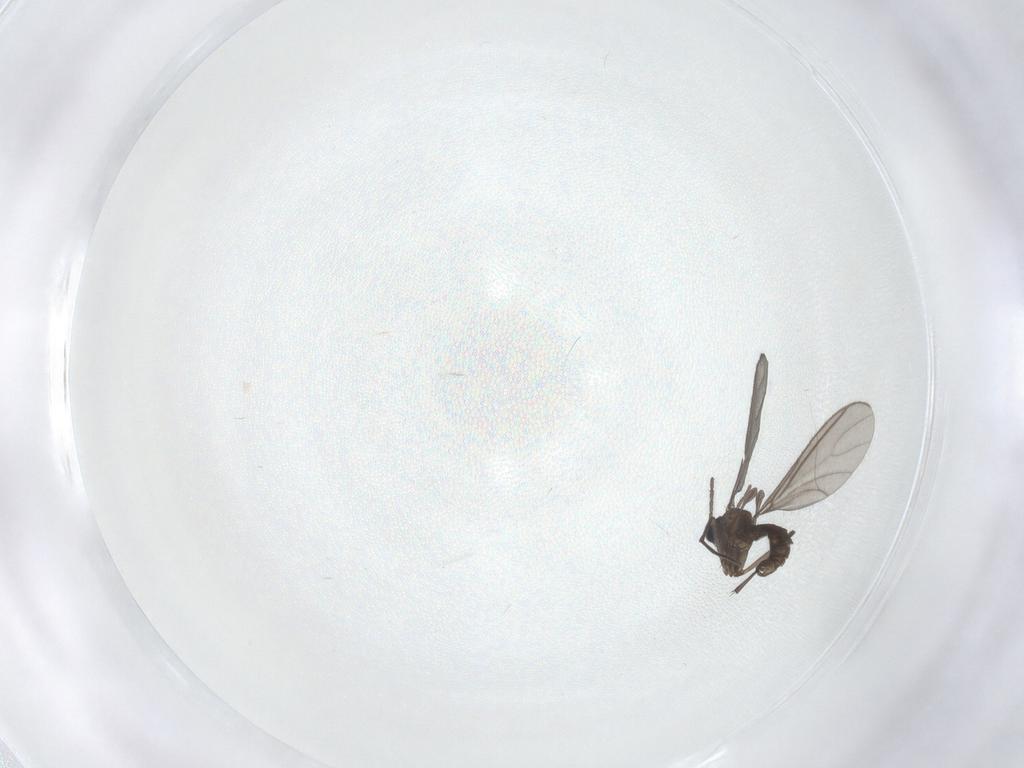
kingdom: Animalia
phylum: Arthropoda
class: Insecta
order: Diptera
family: Sciaridae
